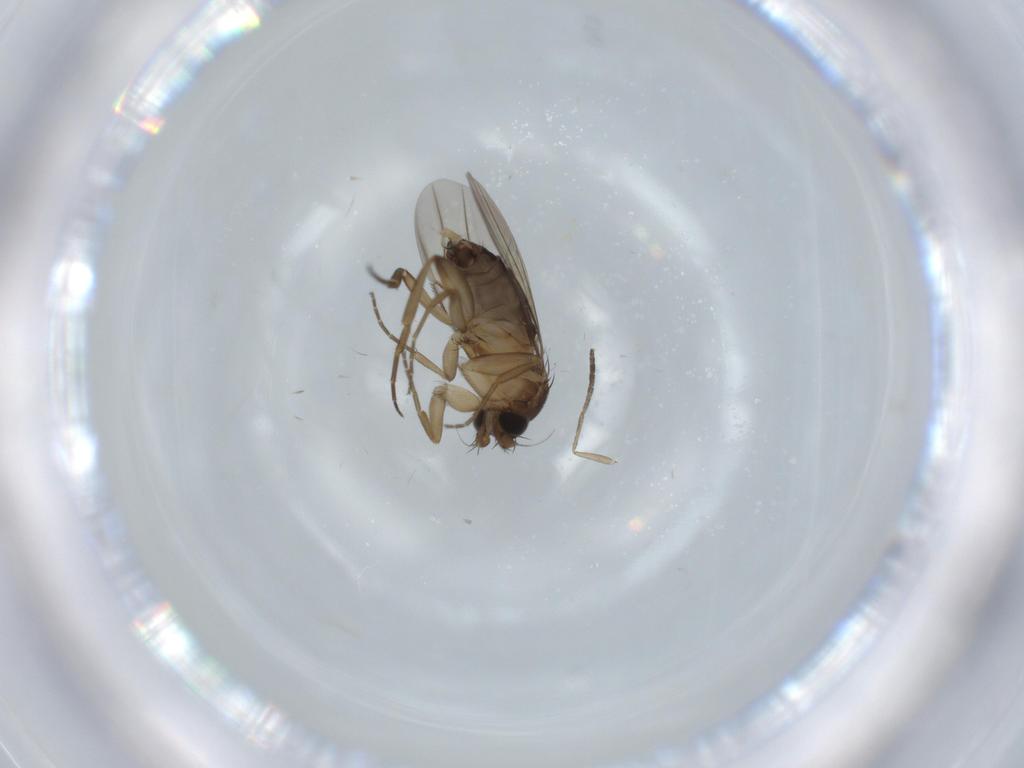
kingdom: Animalia
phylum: Arthropoda
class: Insecta
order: Diptera
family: Phoridae
